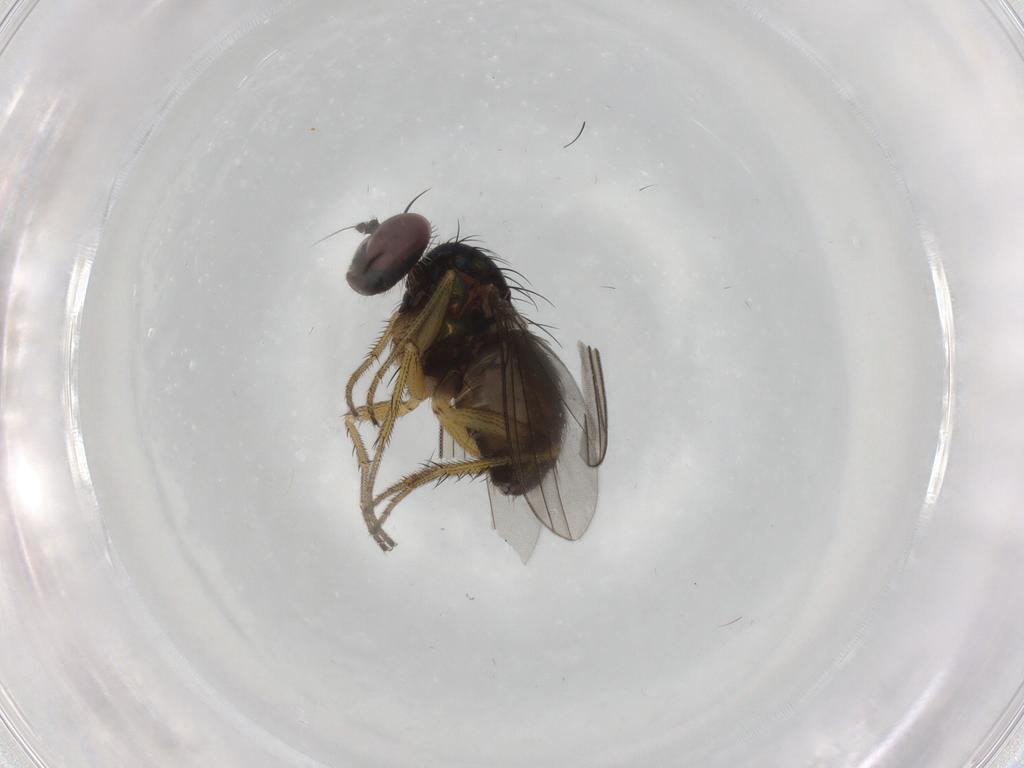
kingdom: Animalia
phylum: Arthropoda
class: Insecta
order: Diptera
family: Dolichopodidae
